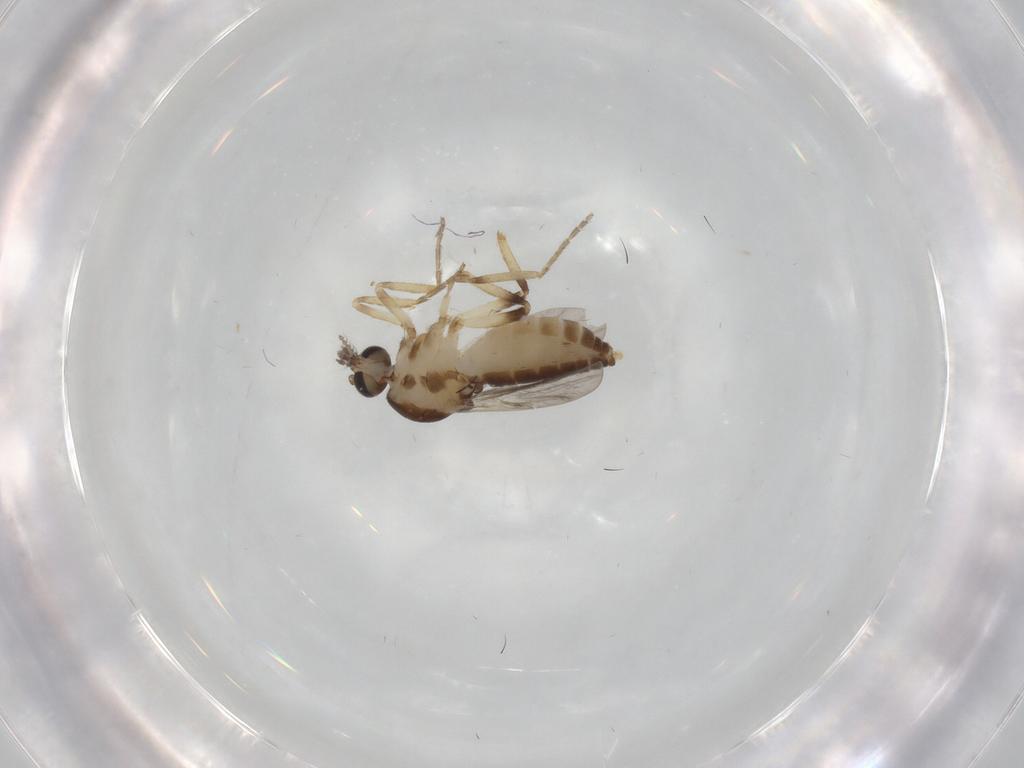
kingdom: Animalia
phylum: Arthropoda
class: Insecta
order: Diptera
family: Ceratopogonidae
